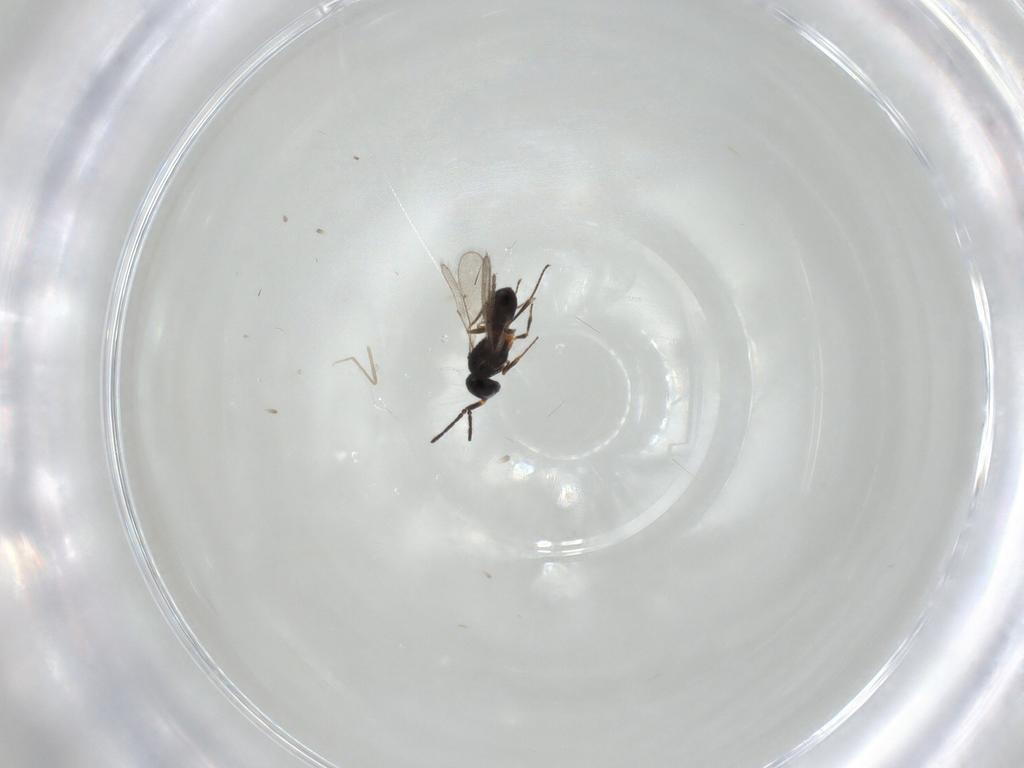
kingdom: Animalia
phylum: Arthropoda
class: Insecta
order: Hymenoptera
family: Scelionidae
